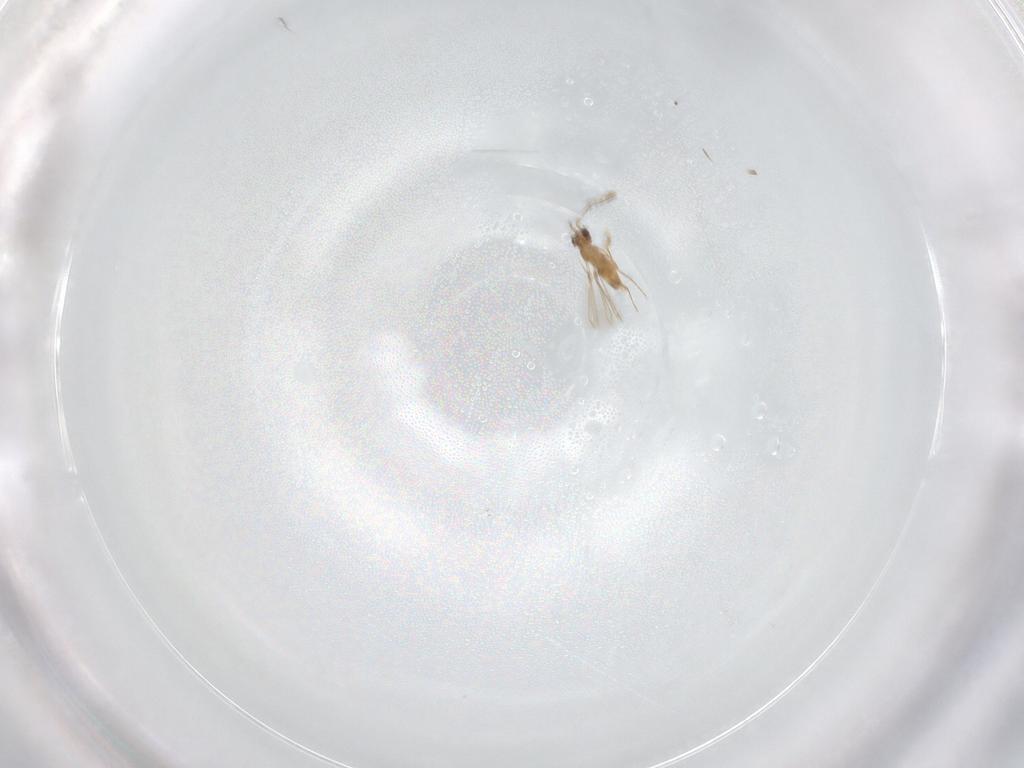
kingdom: Animalia
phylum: Arthropoda
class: Insecta
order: Hymenoptera
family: Mymaridae
